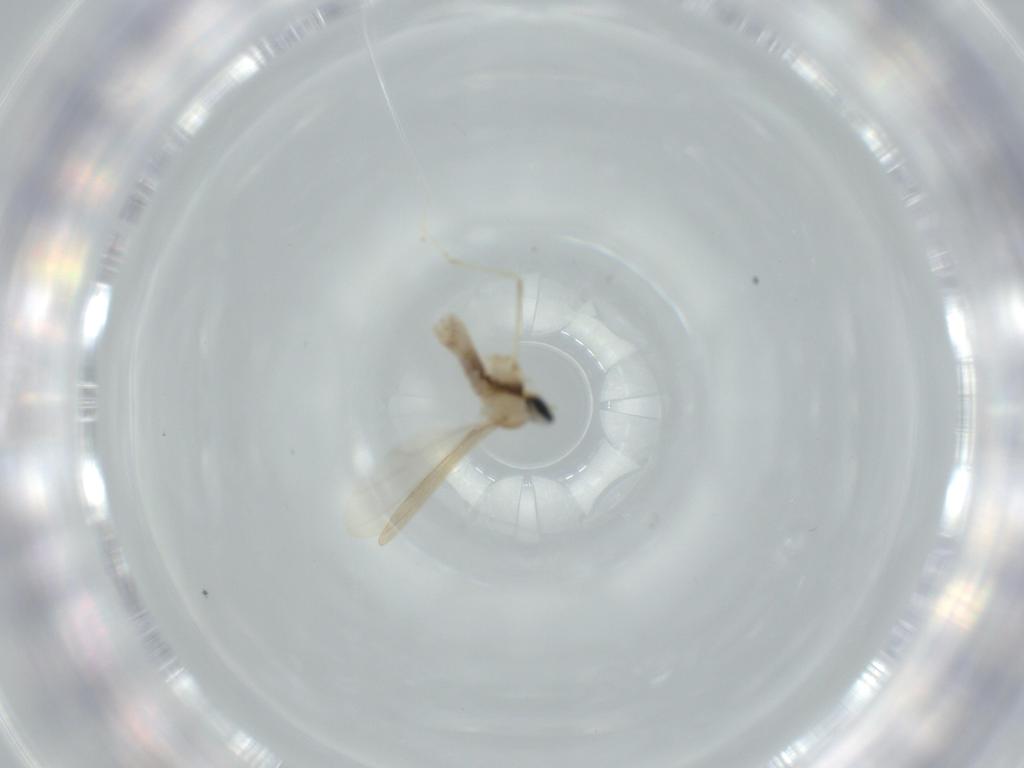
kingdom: Animalia
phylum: Arthropoda
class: Insecta
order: Diptera
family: Cecidomyiidae
